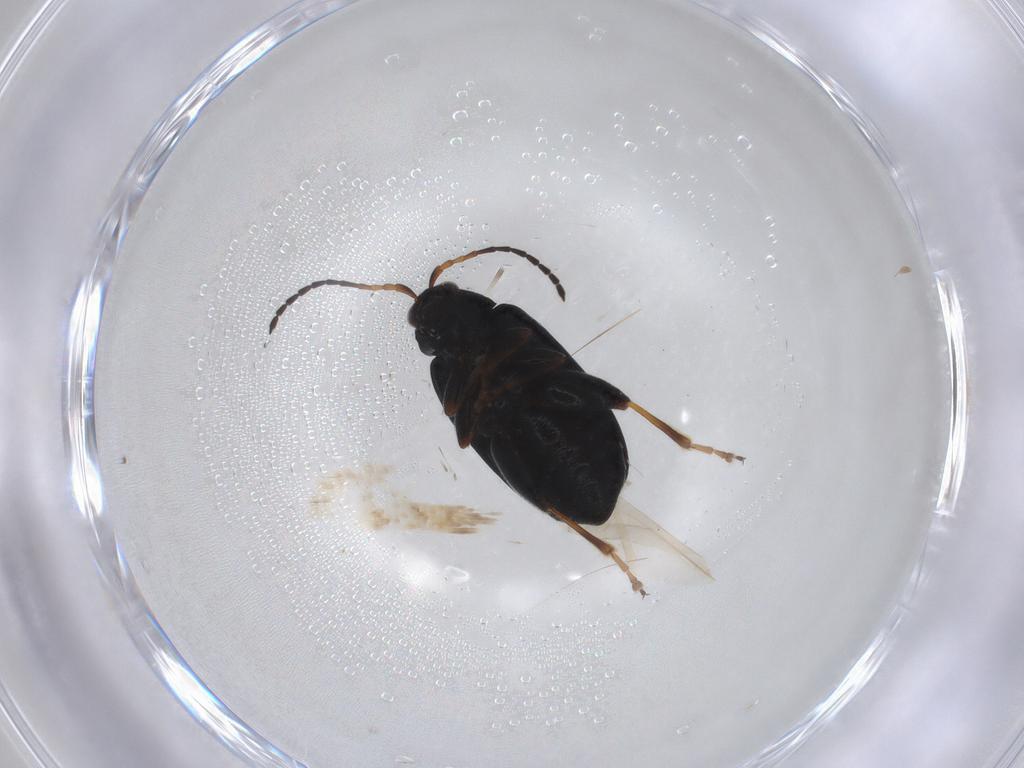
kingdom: Animalia
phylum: Arthropoda
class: Insecta
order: Coleoptera
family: Chrysomelidae
